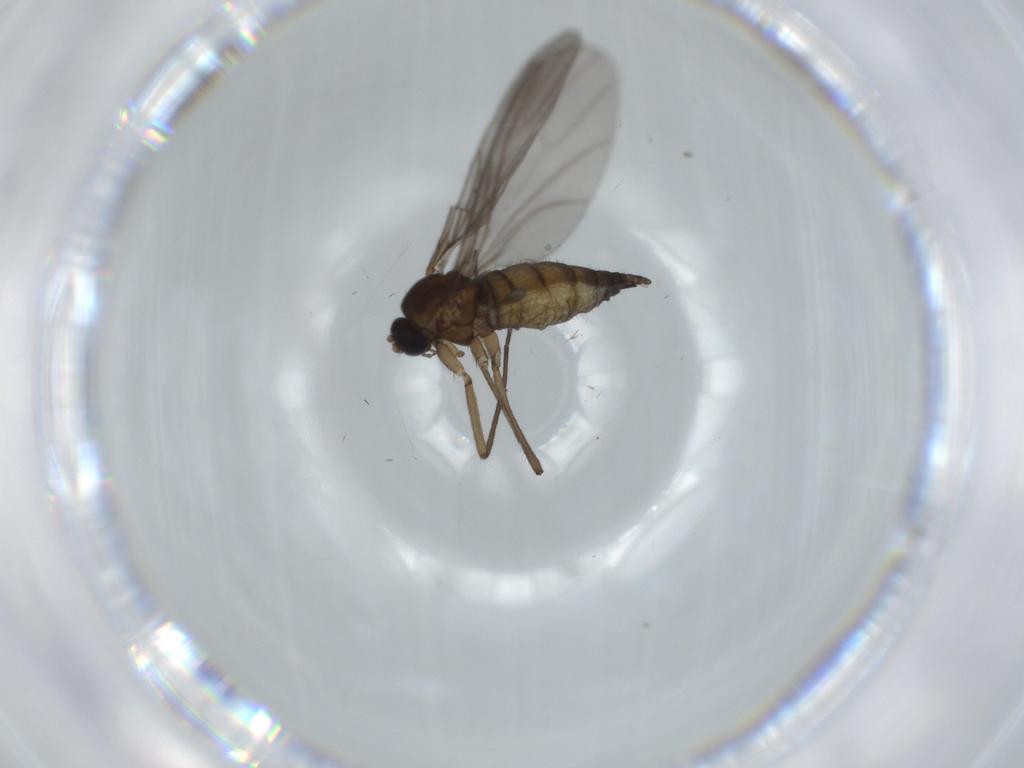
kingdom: Animalia
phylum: Arthropoda
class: Insecta
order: Diptera
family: Sciaridae
